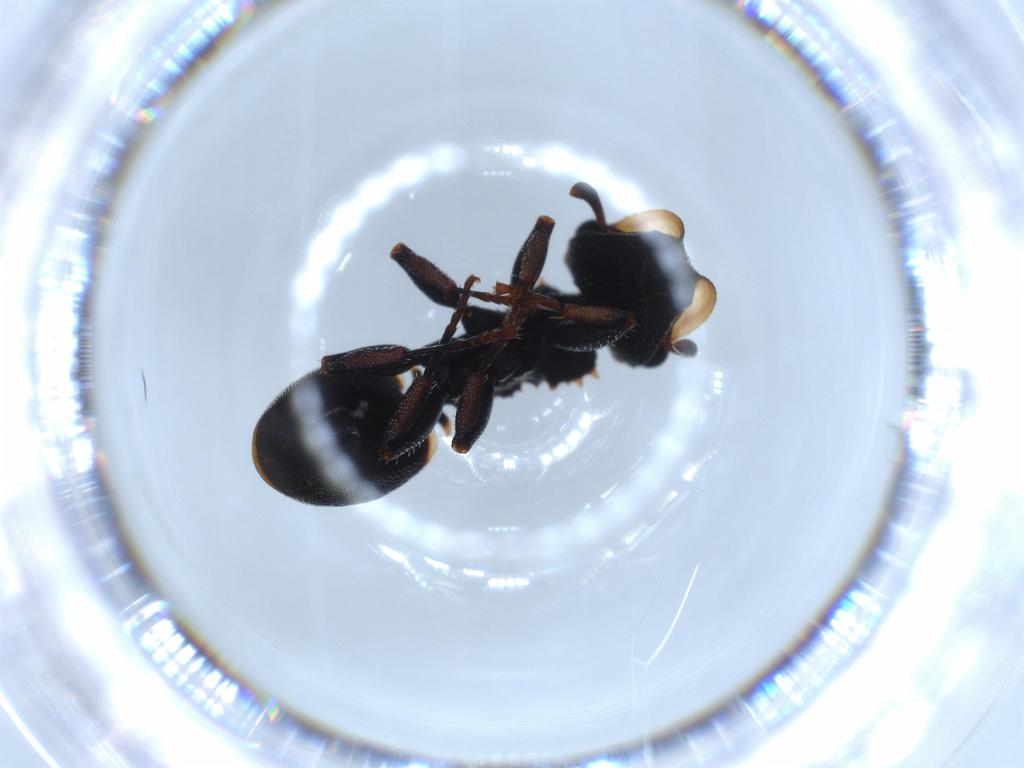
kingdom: Animalia
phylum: Arthropoda
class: Insecta
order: Hymenoptera
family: Formicidae
